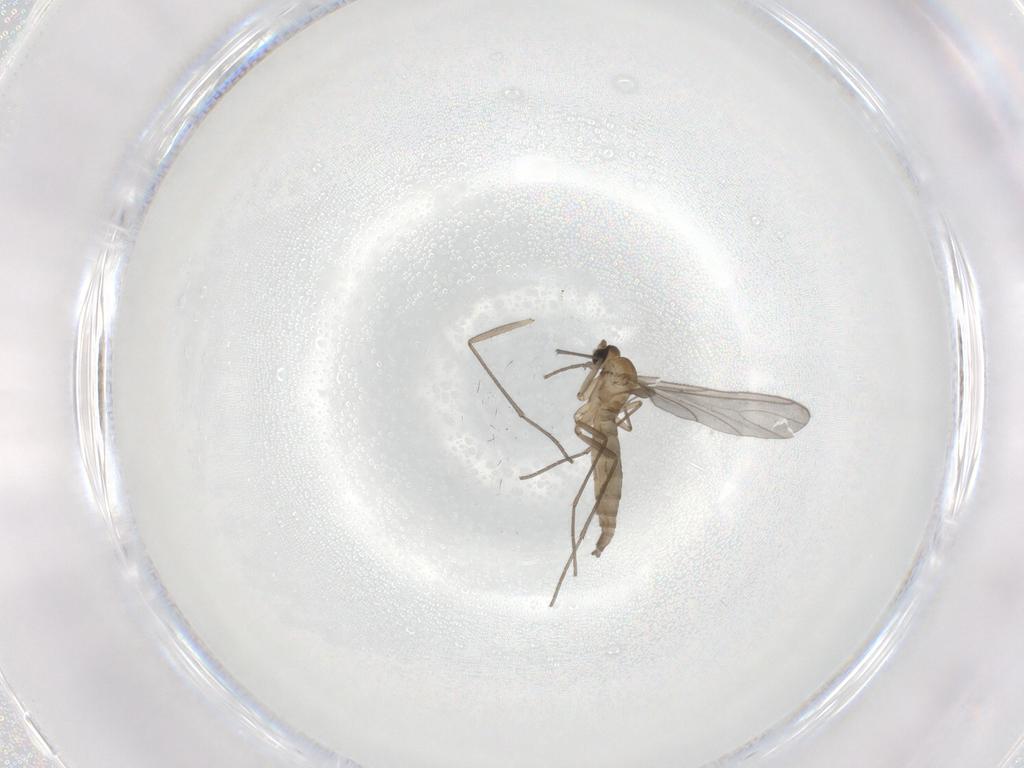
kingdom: Animalia
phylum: Arthropoda
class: Insecta
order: Diptera
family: Sciaridae
